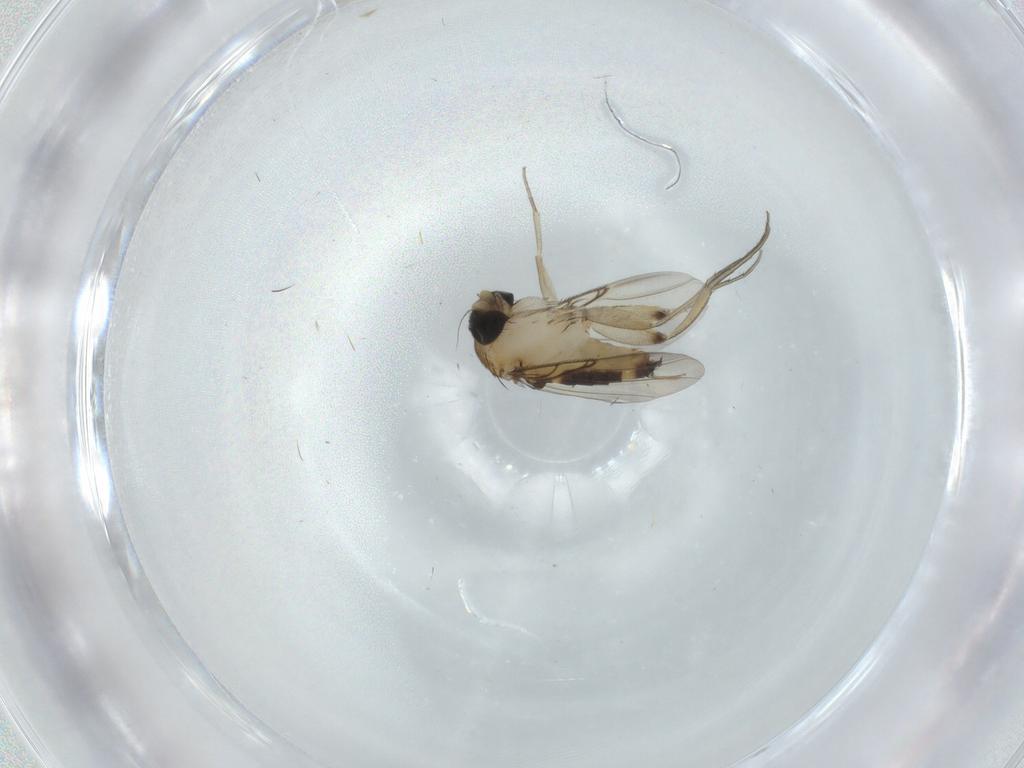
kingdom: Animalia
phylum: Arthropoda
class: Insecta
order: Diptera
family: Phoridae
